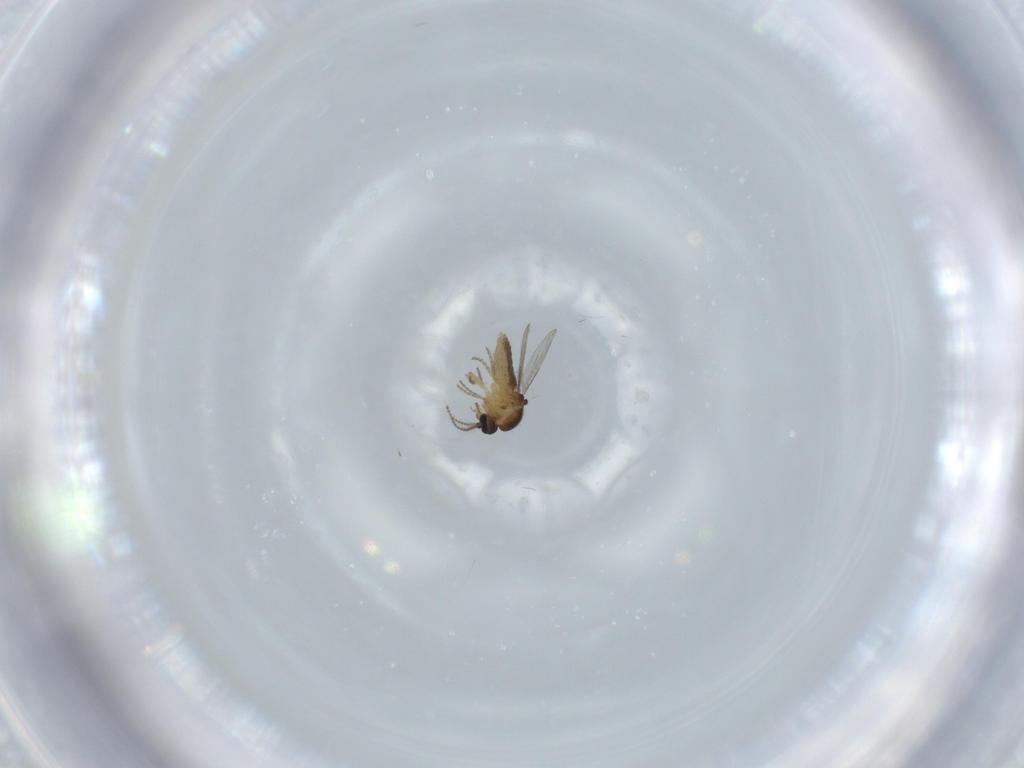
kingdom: Animalia
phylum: Arthropoda
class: Insecta
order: Diptera
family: Ceratopogonidae
